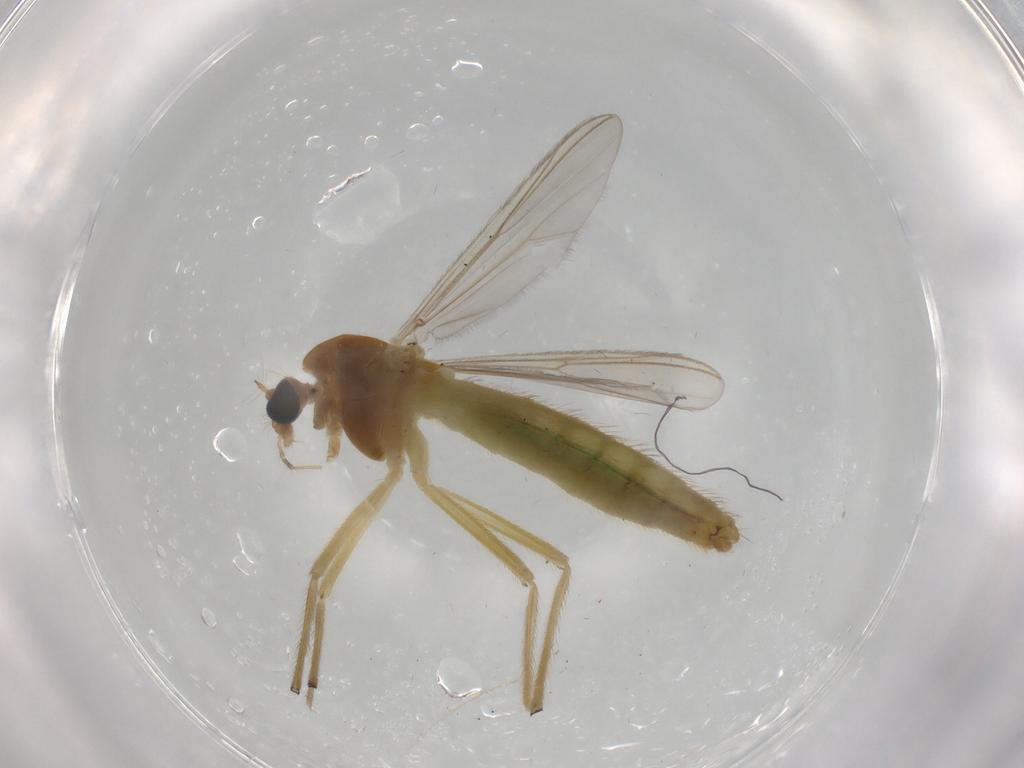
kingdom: Animalia
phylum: Arthropoda
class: Insecta
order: Diptera
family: Chironomidae
